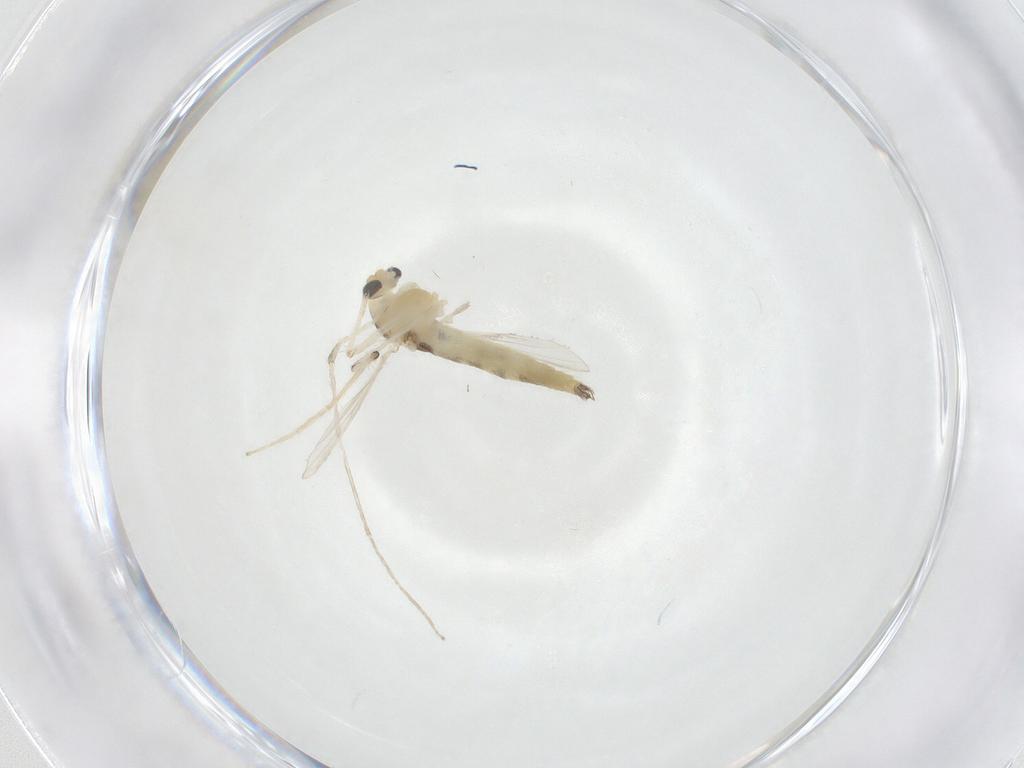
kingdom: Animalia
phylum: Arthropoda
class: Insecta
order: Diptera
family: Chironomidae
